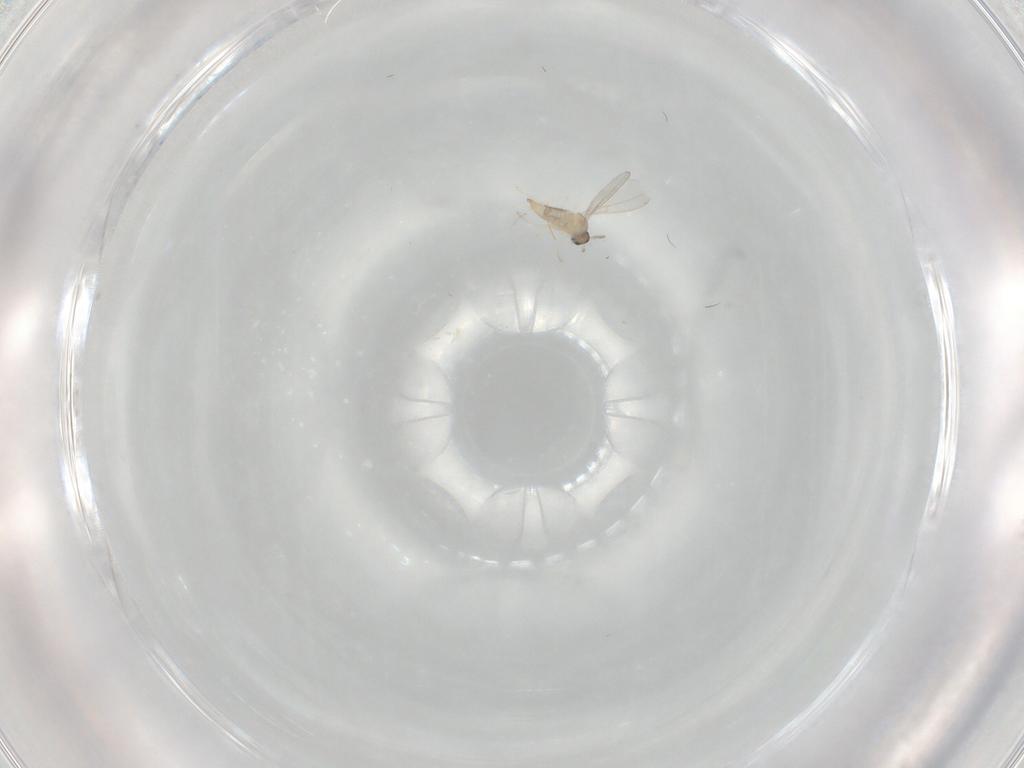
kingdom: Animalia
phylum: Arthropoda
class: Insecta
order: Diptera
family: Cecidomyiidae
